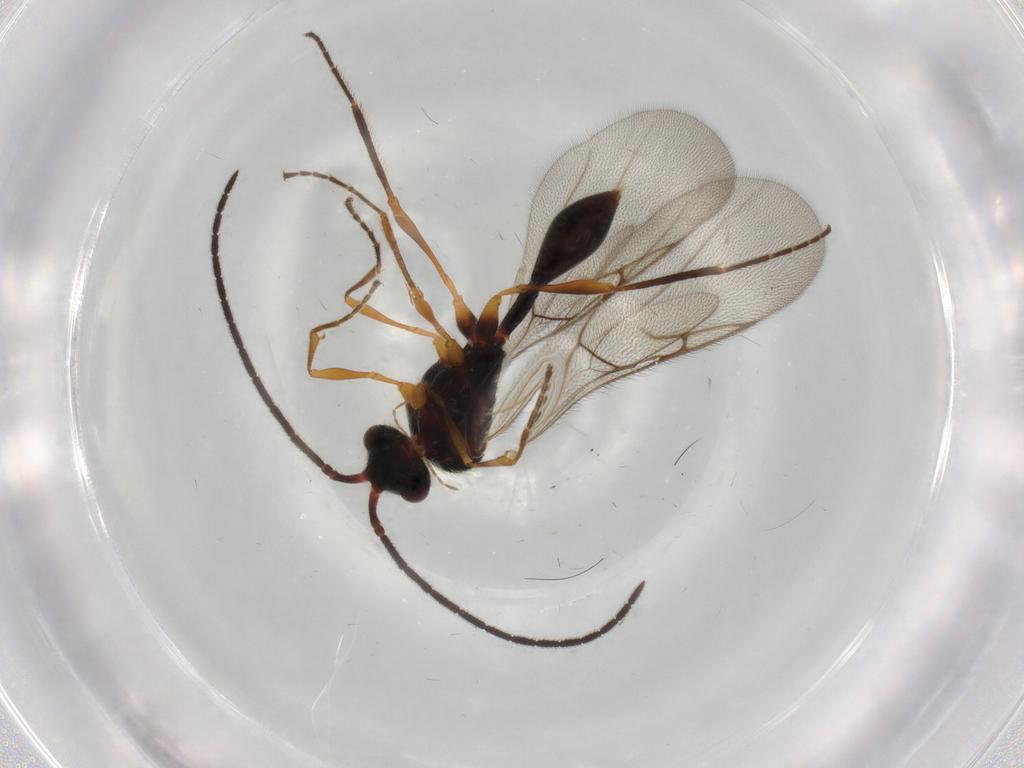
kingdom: Animalia
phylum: Arthropoda
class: Insecta
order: Hymenoptera
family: Diapriidae
